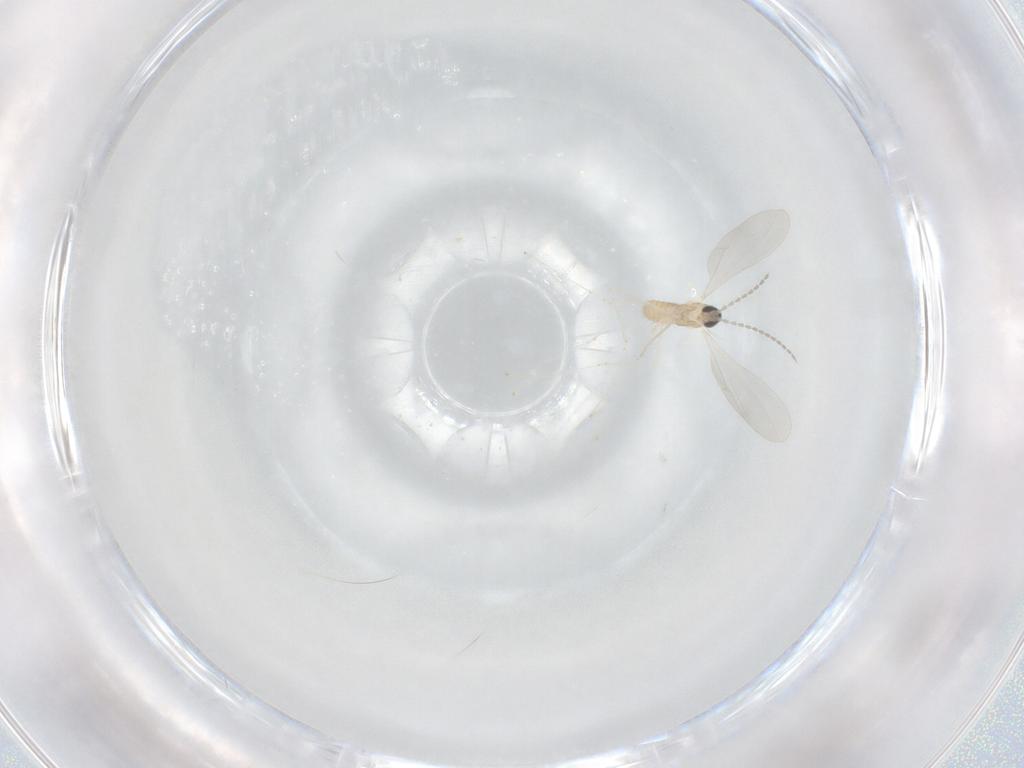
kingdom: Animalia
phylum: Arthropoda
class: Insecta
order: Diptera
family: Cecidomyiidae
